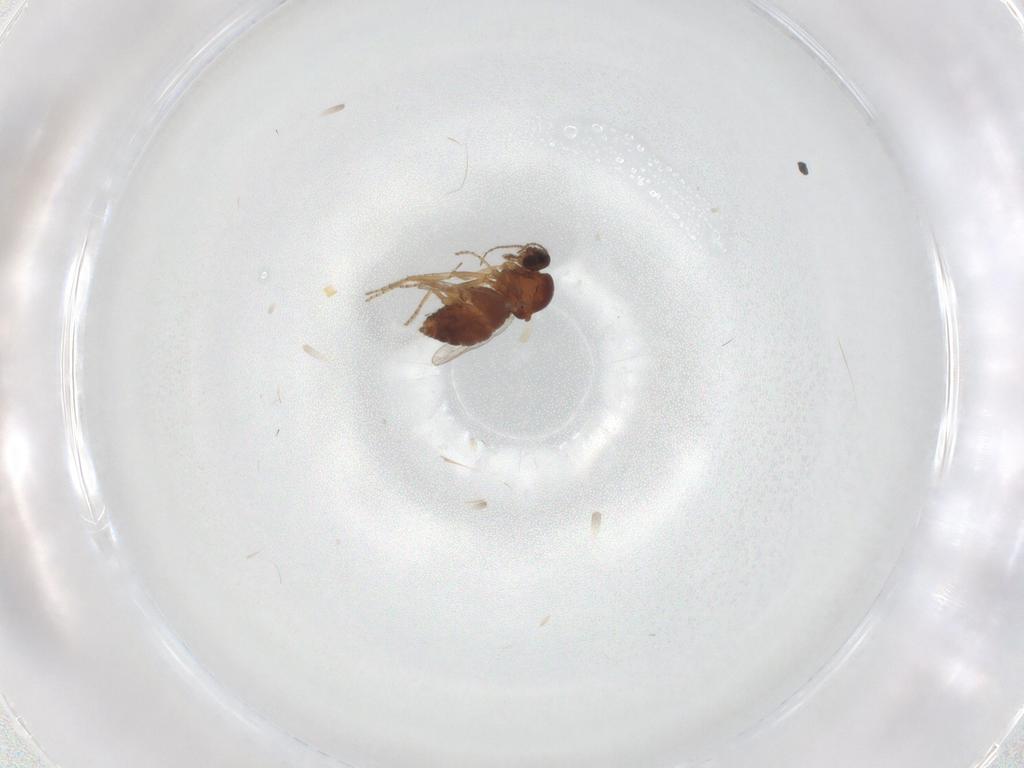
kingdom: Animalia
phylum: Arthropoda
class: Insecta
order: Diptera
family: Ceratopogonidae
